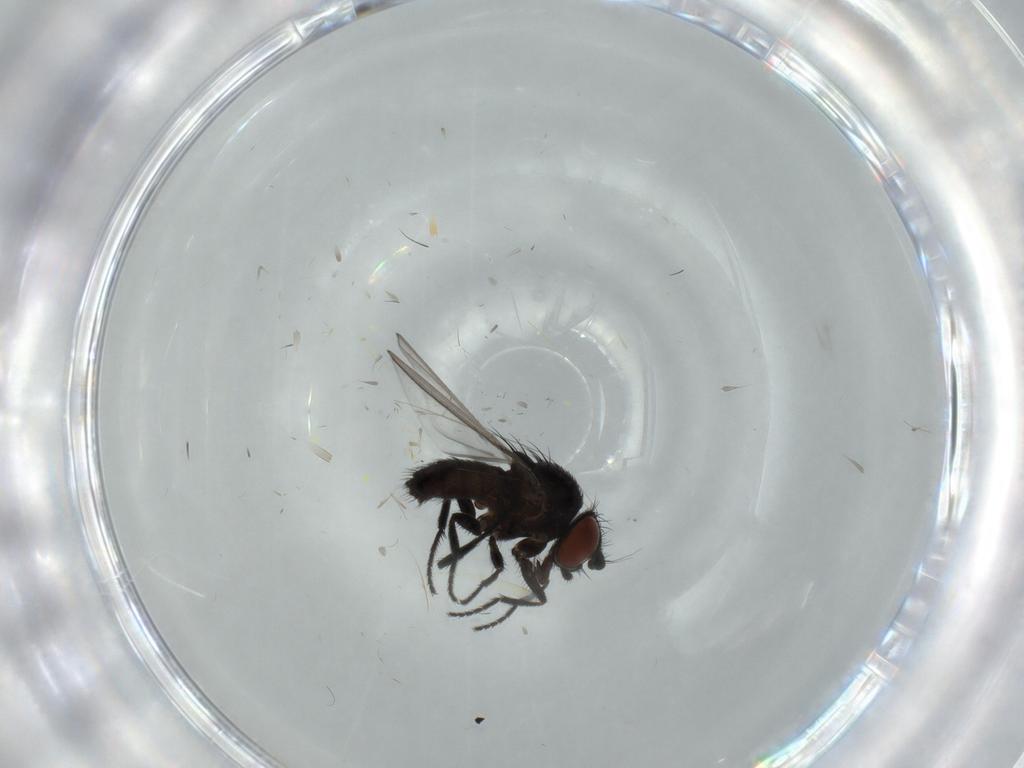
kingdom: Animalia
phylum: Arthropoda
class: Insecta
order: Diptera
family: Milichiidae
